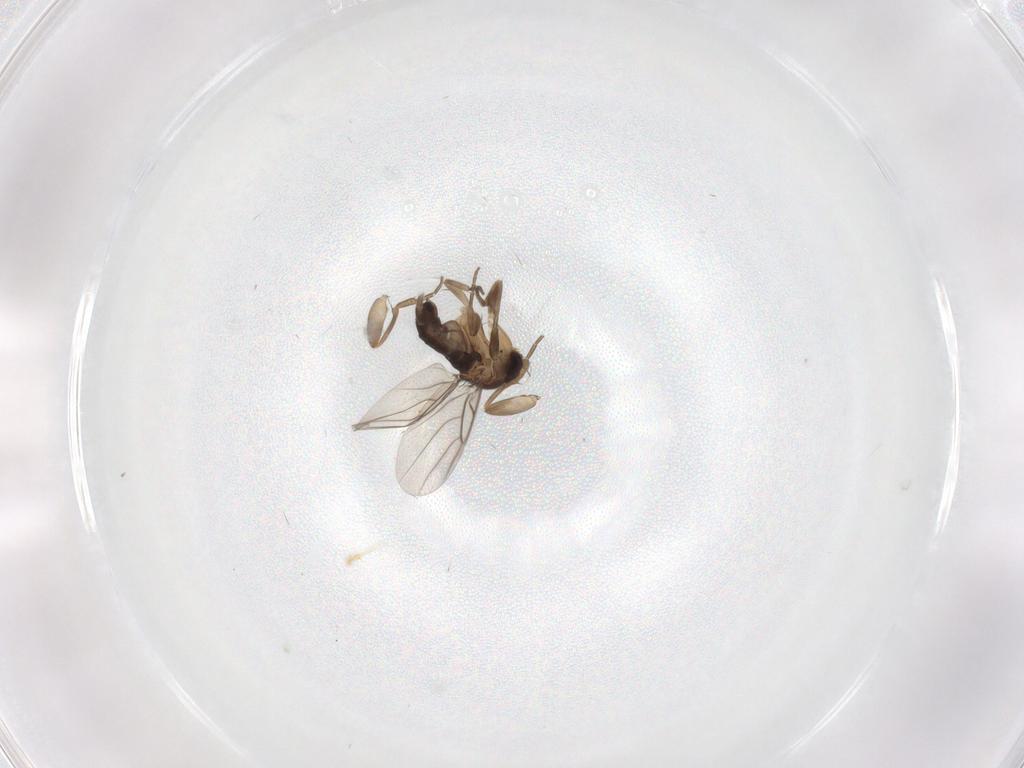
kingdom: Animalia
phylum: Arthropoda
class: Insecta
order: Diptera
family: Phoridae
